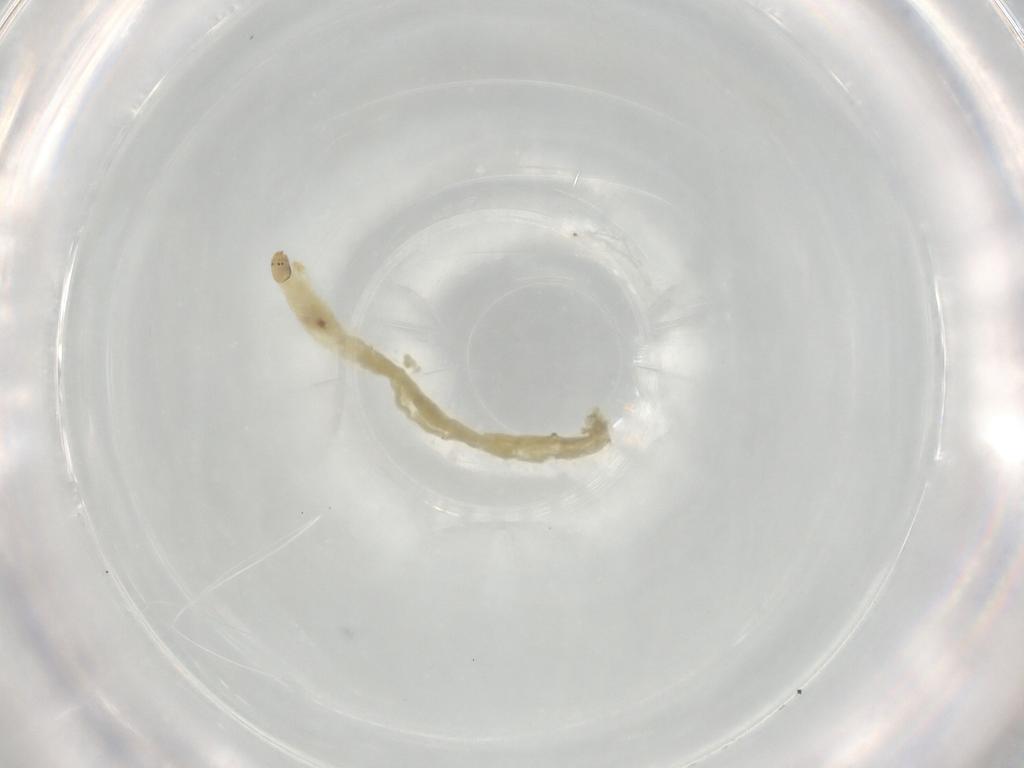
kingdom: Animalia
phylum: Arthropoda
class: Insecta
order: Diptera
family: Chironomidae
